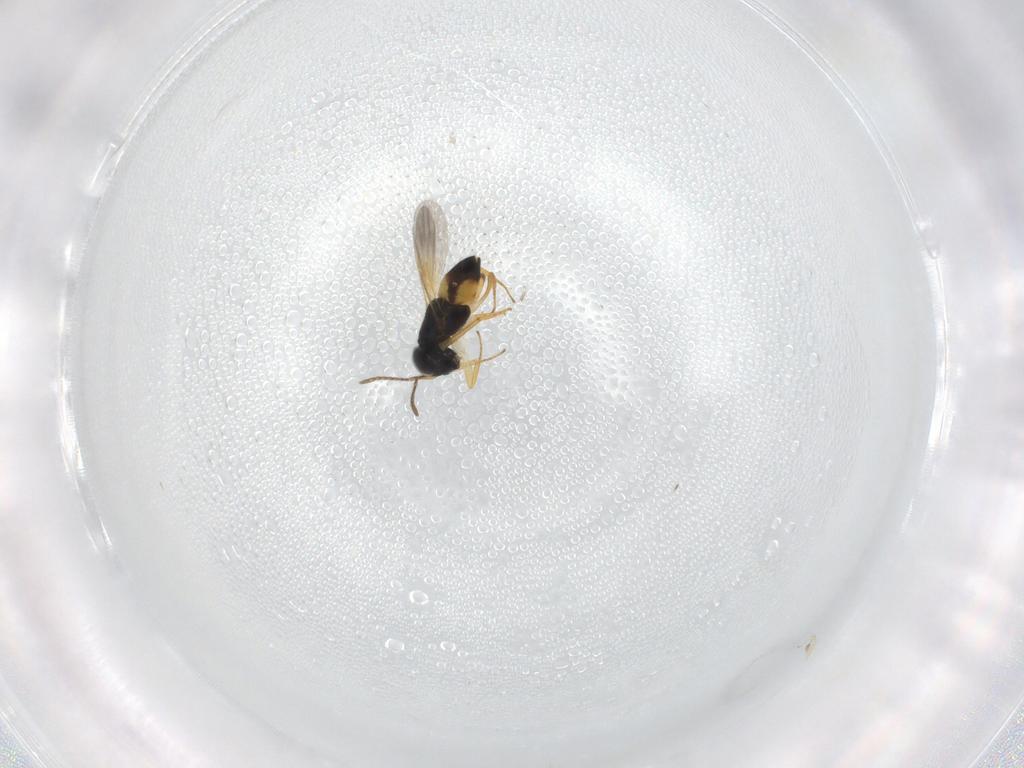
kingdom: Animalia
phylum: Arthropoda
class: Insecta
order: Hymenoptera
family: Encyrtidae
